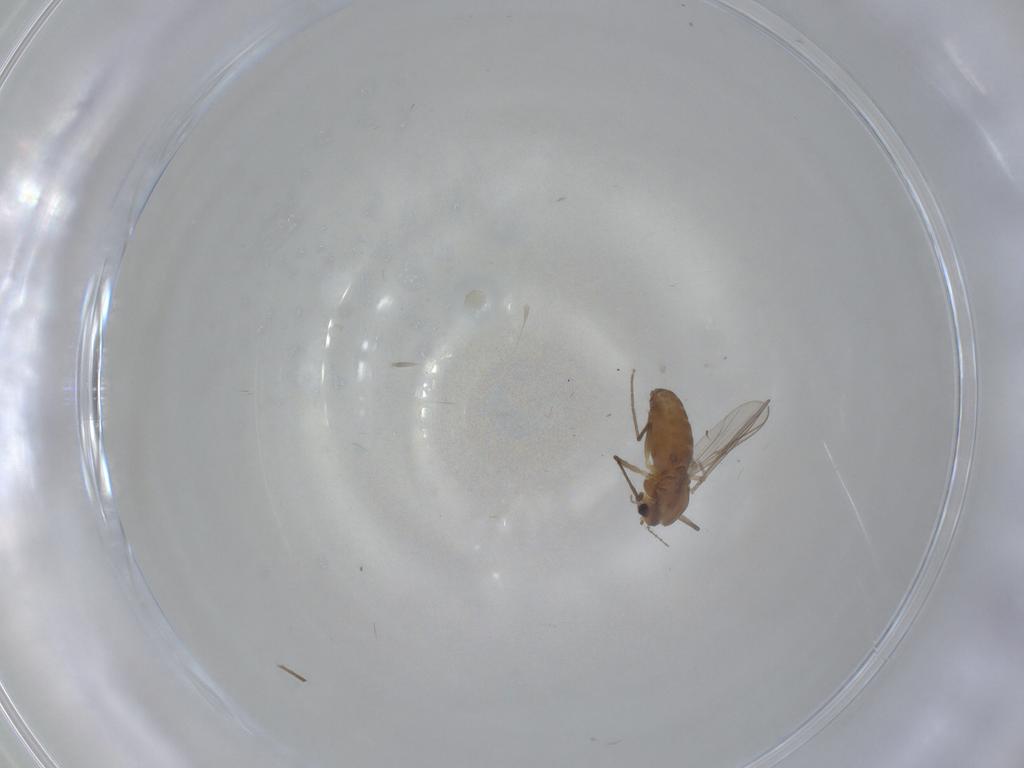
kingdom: Animalia
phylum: Arthropoda
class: Insecta
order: Diptera
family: Sciaridae
